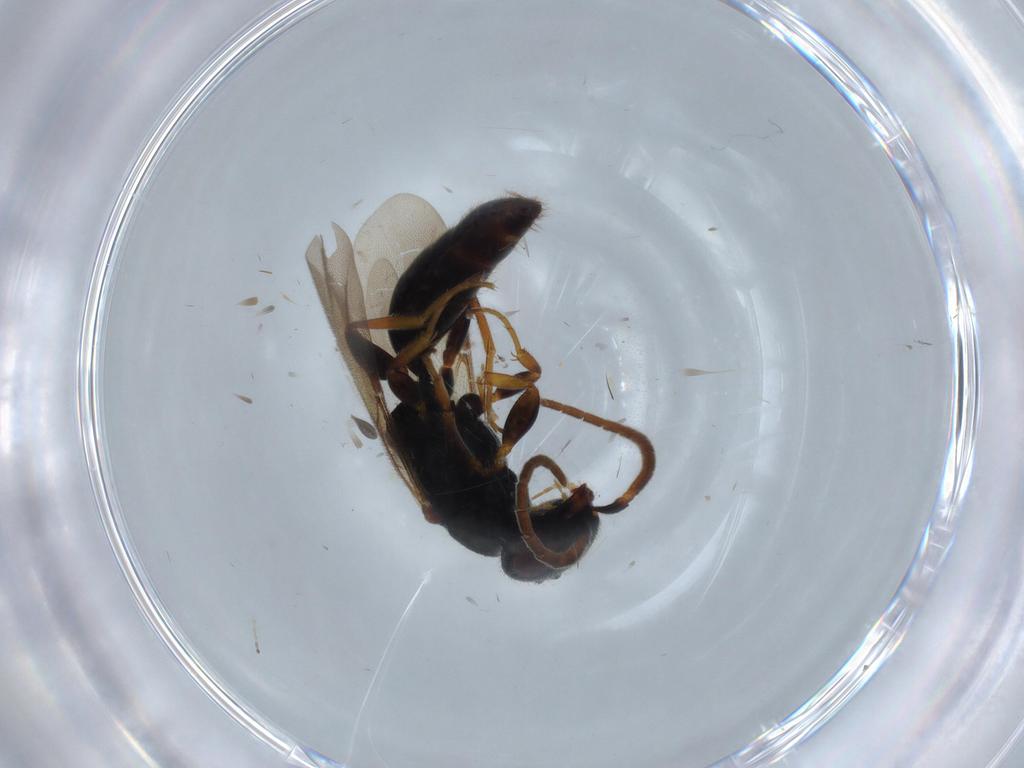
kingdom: Animalia
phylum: Arthropoda
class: Insecta
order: Hymenoptera
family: Bethylidae
